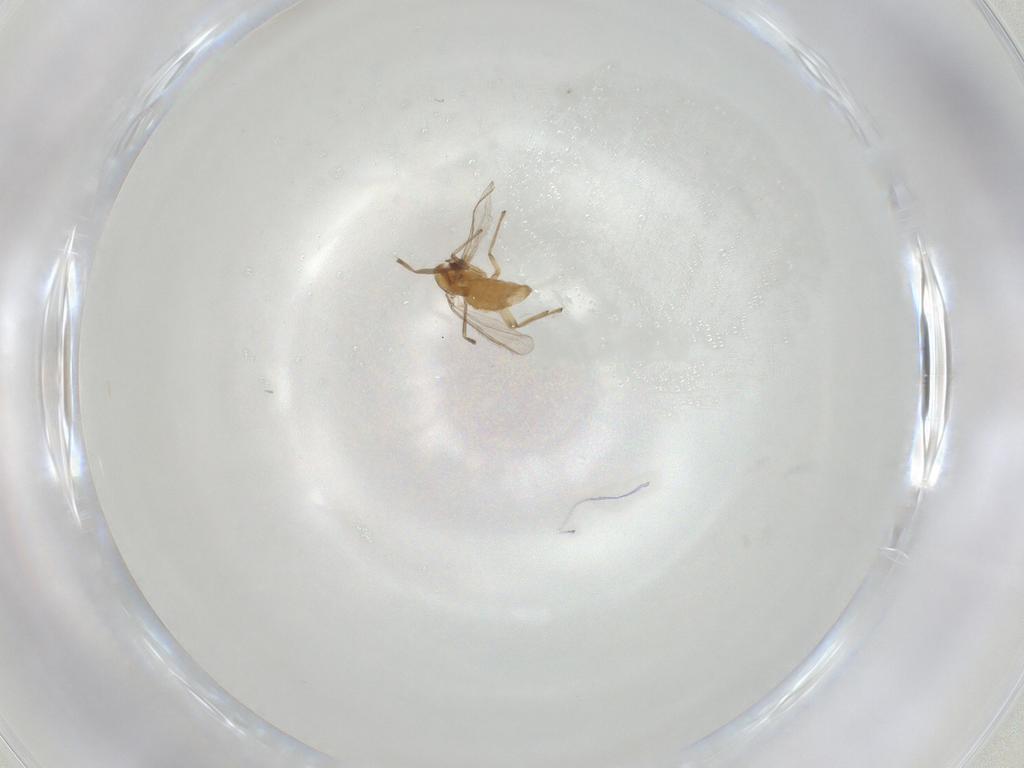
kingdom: Animalia
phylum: Arthropoda
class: Insecta
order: Diptera
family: Chironomidae
